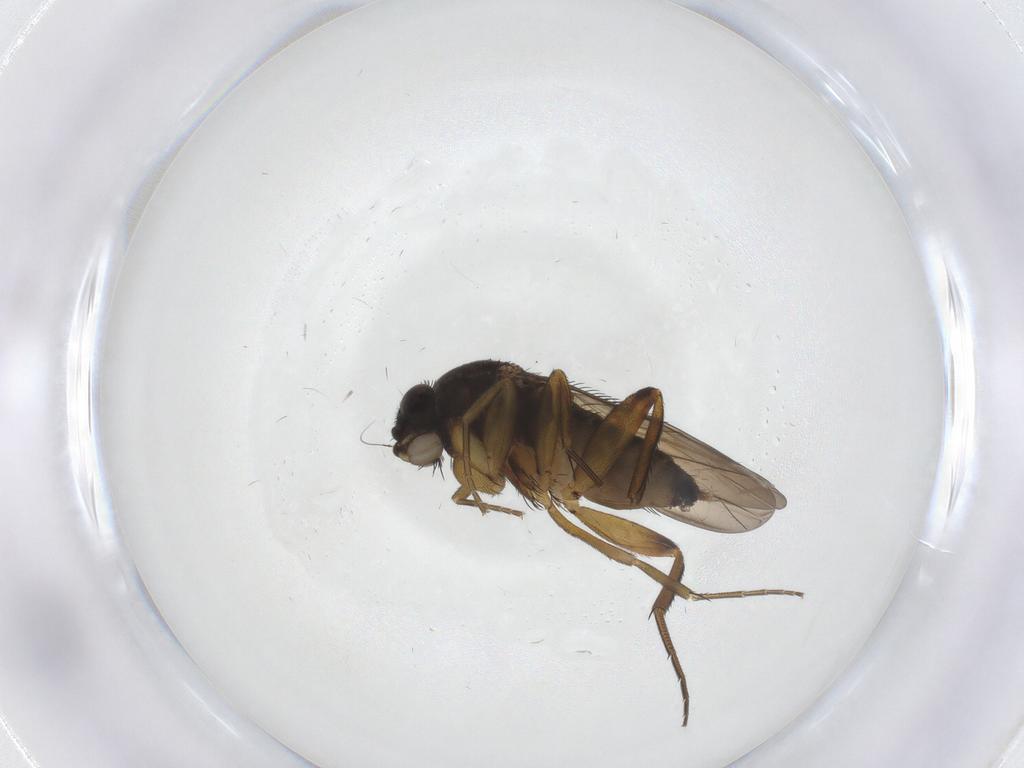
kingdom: Animalia
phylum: Arthropoda
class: Insecta
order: Diptera
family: Phoridae
